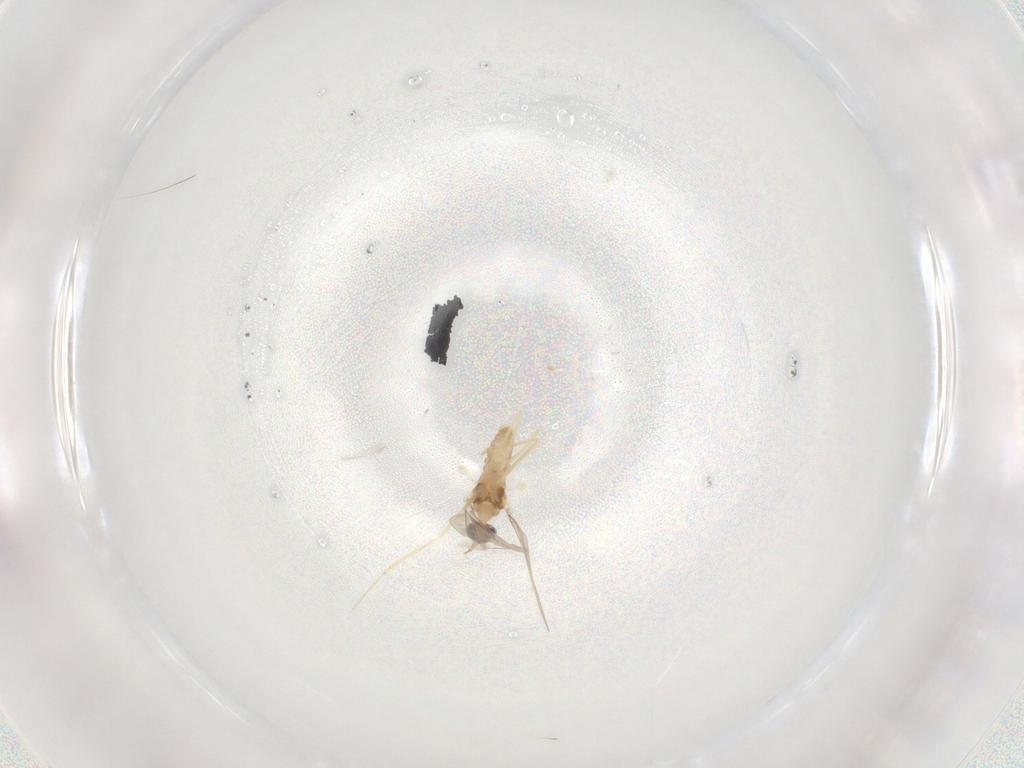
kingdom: Animalia
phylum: Arthropoda
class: Insecta
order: Diptera
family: Cecidomyiidae
